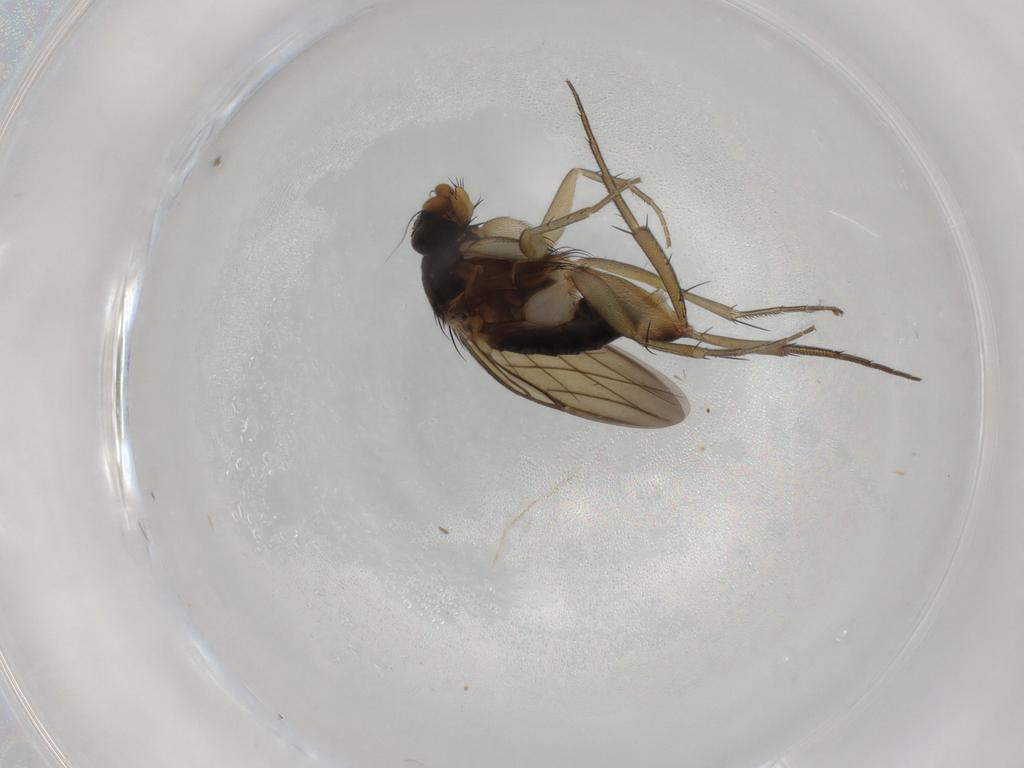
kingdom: Animalia
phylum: Arthropoda
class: Insecta
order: Diptera
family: Phoridae
